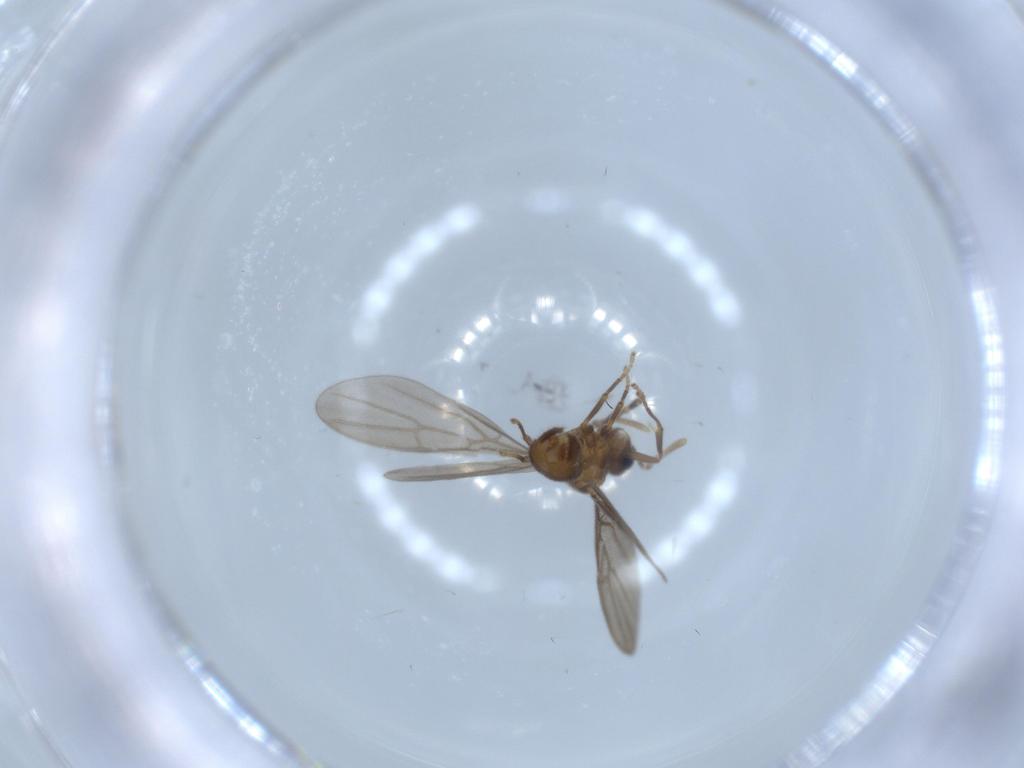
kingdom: Animalia
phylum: Arthropoda
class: Insecta
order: Hymenoptera
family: Formicidae
